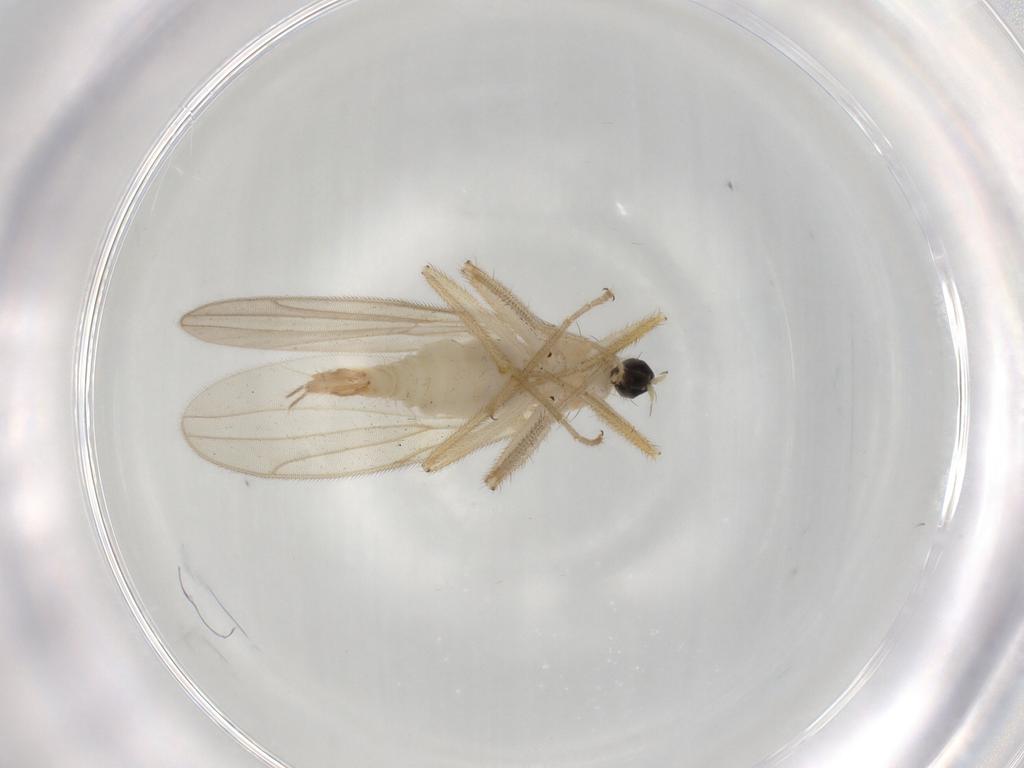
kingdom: Animalia
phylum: Arthropoda
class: Insecta
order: Diptera
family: Hybotidae
